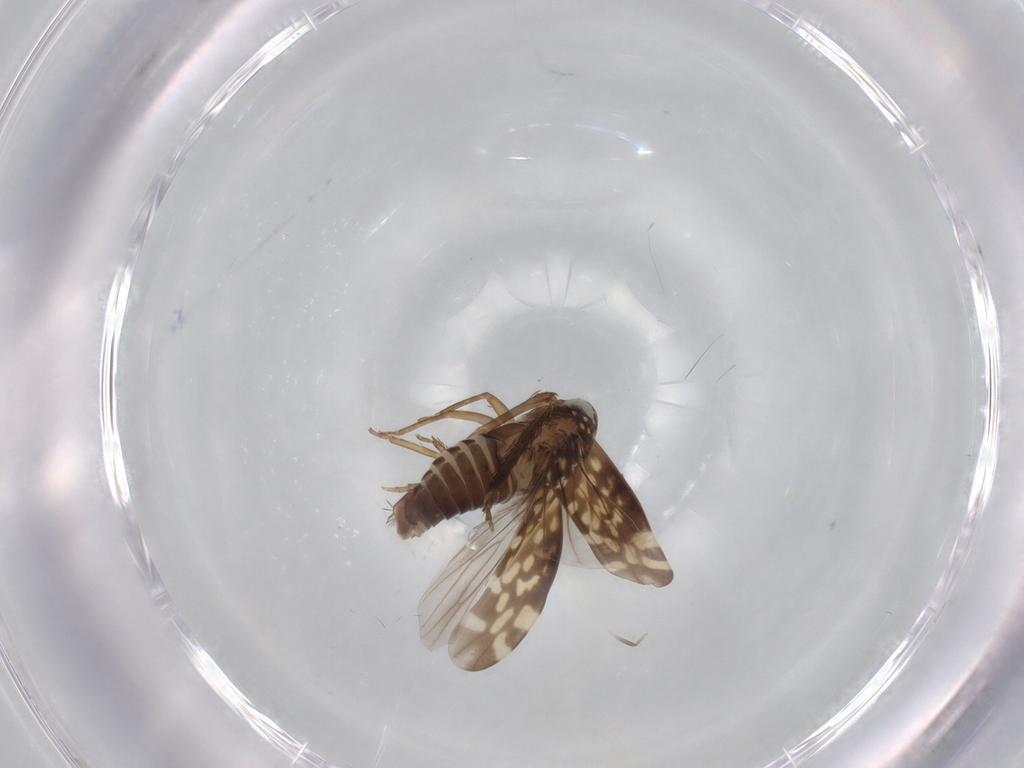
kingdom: Animalia
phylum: Arthropoda
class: Insecta
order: Hemiptera
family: Cicadellidae
